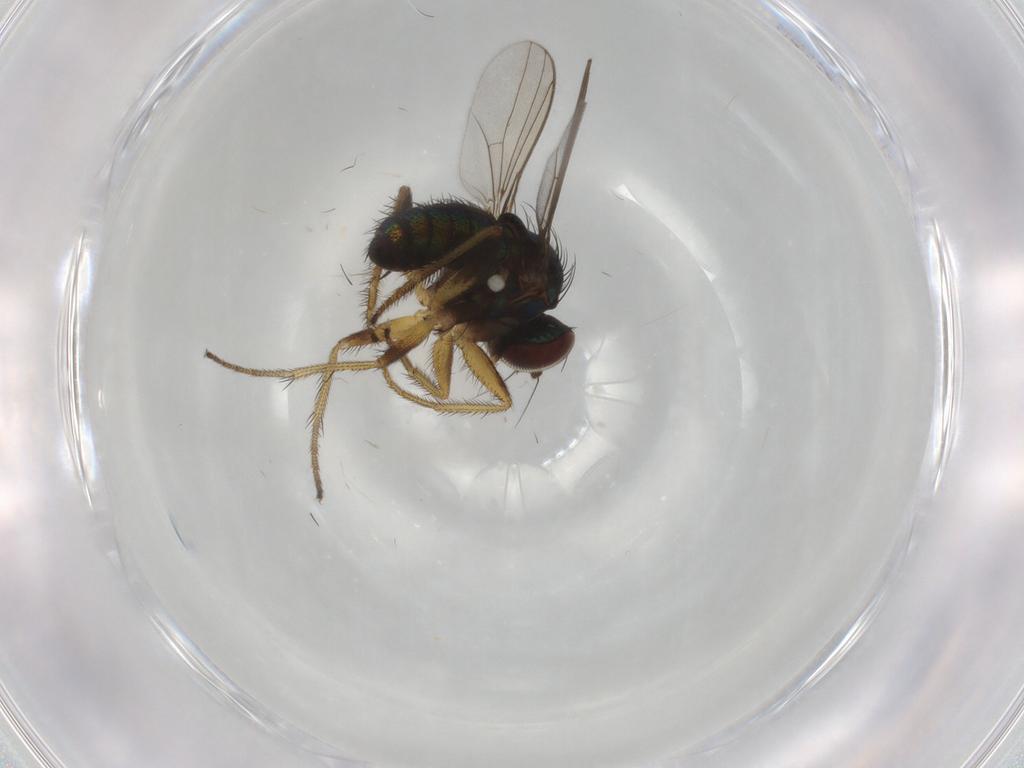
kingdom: Animalia
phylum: Arthropoda
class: Insecta
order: Diptera
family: Dolichopodidae
